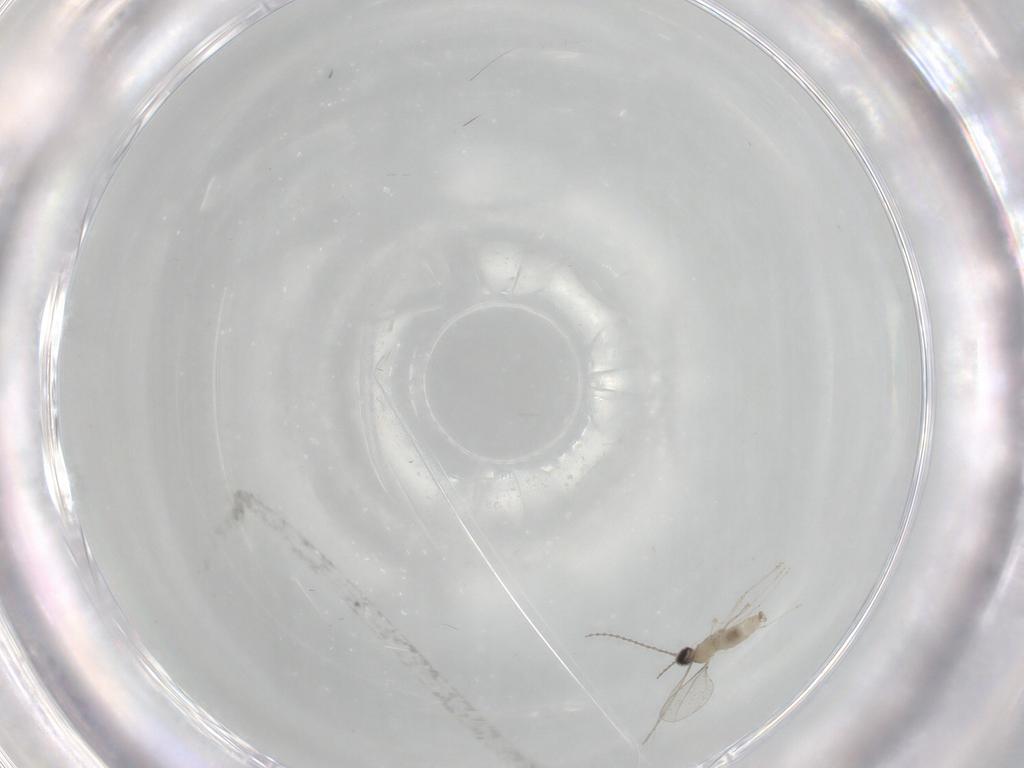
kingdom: Animalia
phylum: Arthropoda
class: Insecta
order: Diptera
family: Cecidomyiidae
